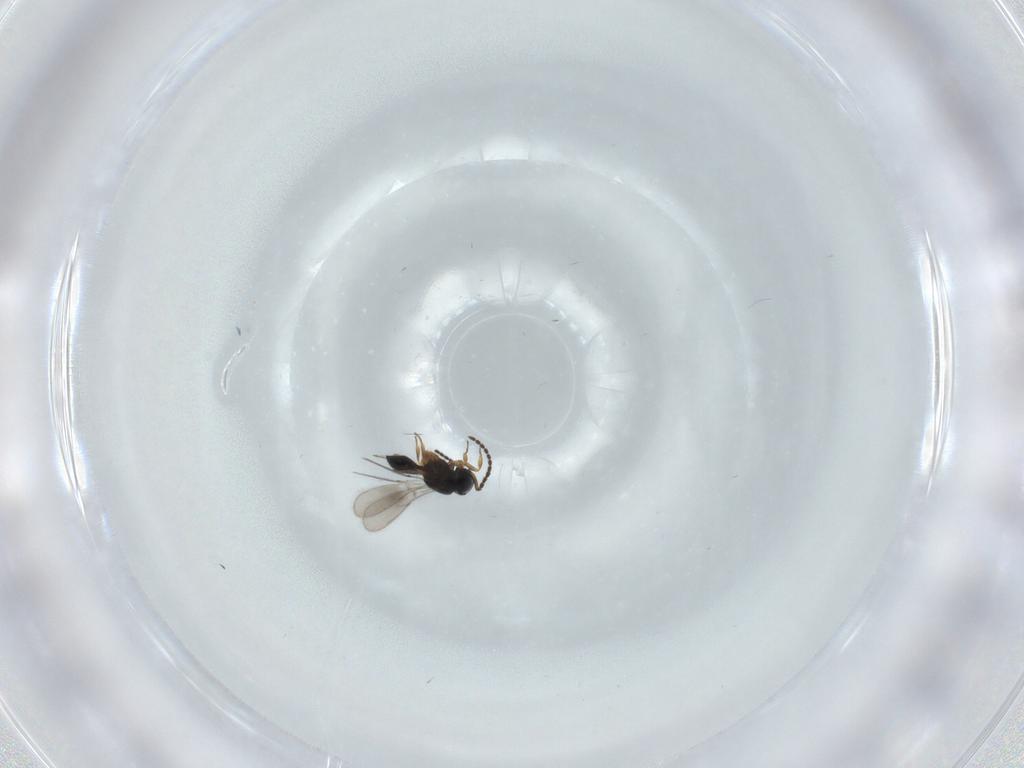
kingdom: Animalia
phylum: Arthropoda
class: Insecta
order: Hymenoptera
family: Scelionidae
